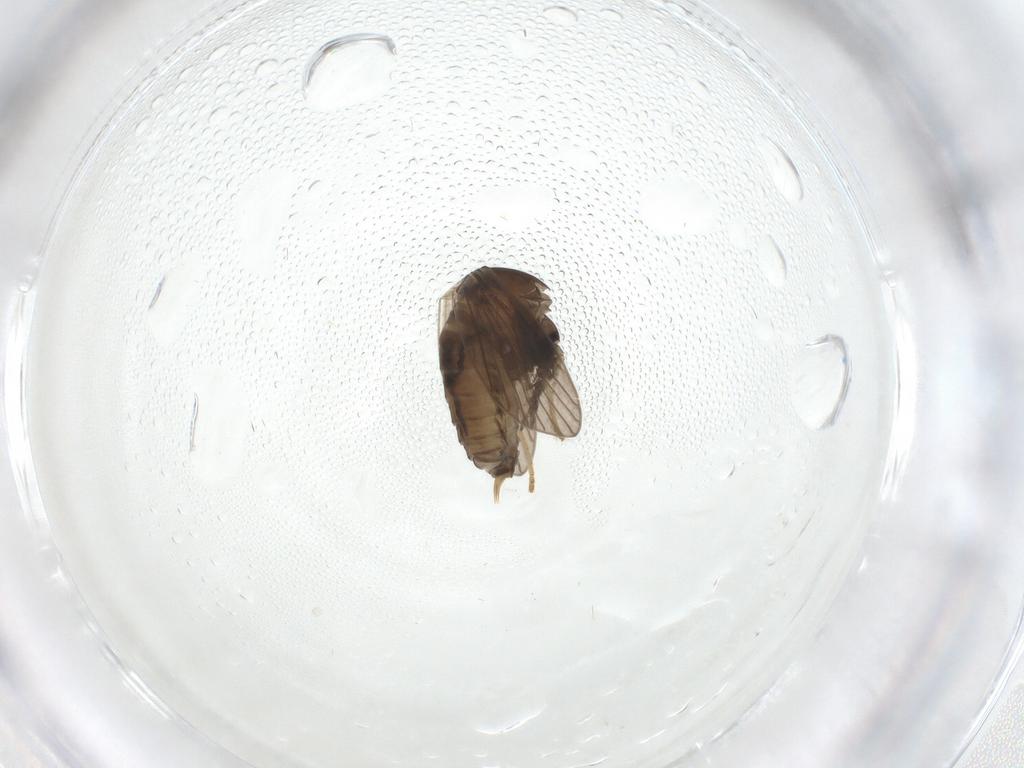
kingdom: Animalia
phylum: Arthropoda
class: Insecta
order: Diptera
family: Psychodidae
